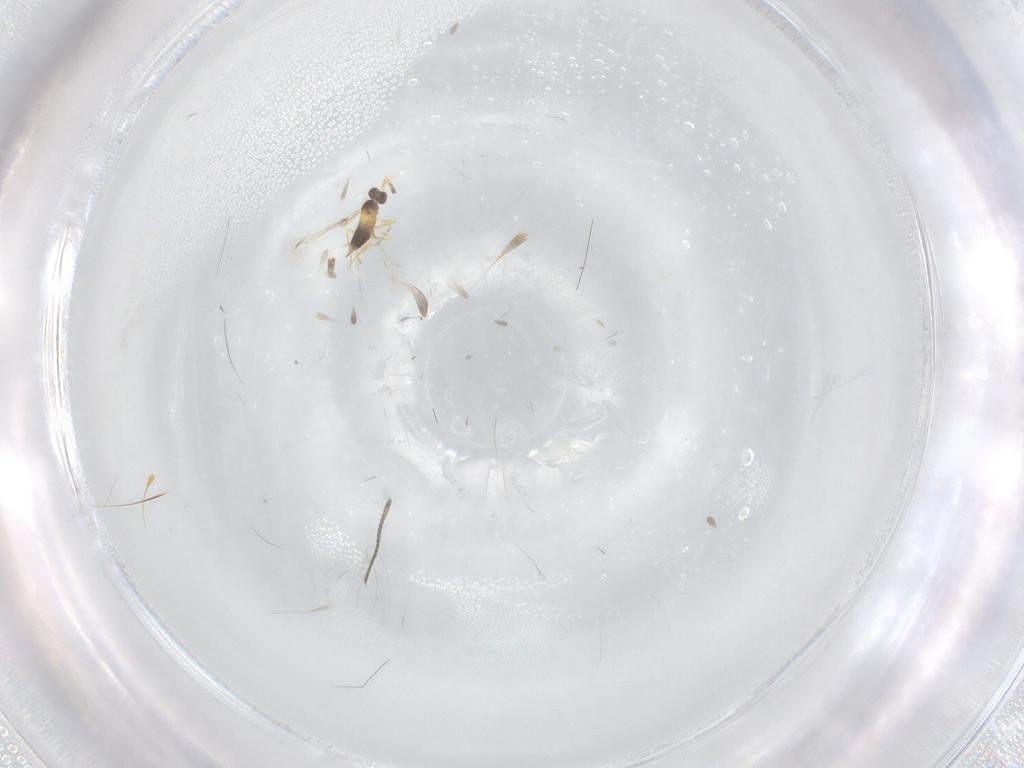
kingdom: Animalia
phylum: Arthropoda
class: Insecta
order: Hymenoptera
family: Mymaridae
